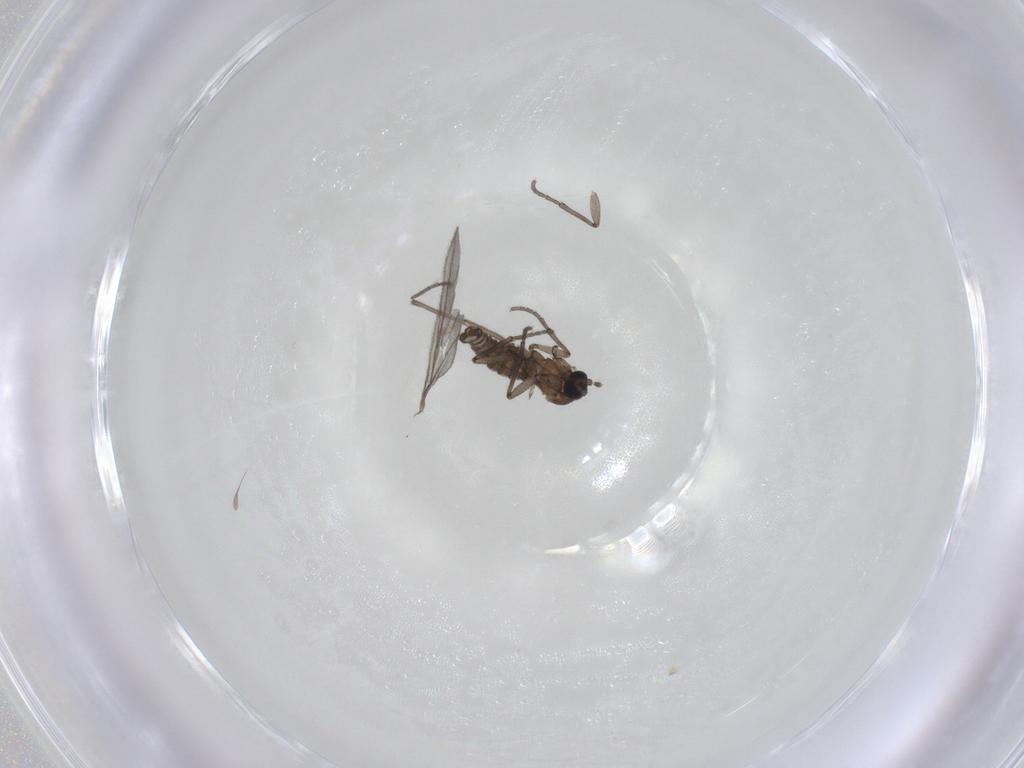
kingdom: Animalia
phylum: Arthropoda
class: Insecta
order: Diptera
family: Sciaridae
